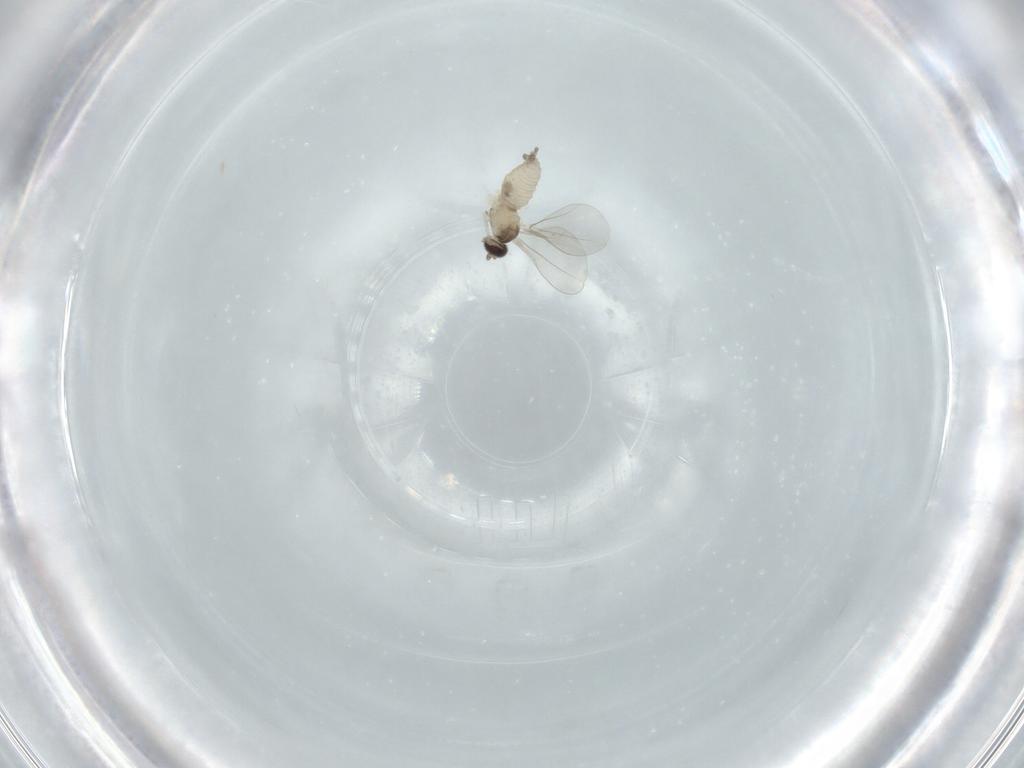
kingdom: Animalia
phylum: Arthropoda
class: Insecta
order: Diptera
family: Cecidomyiidae
